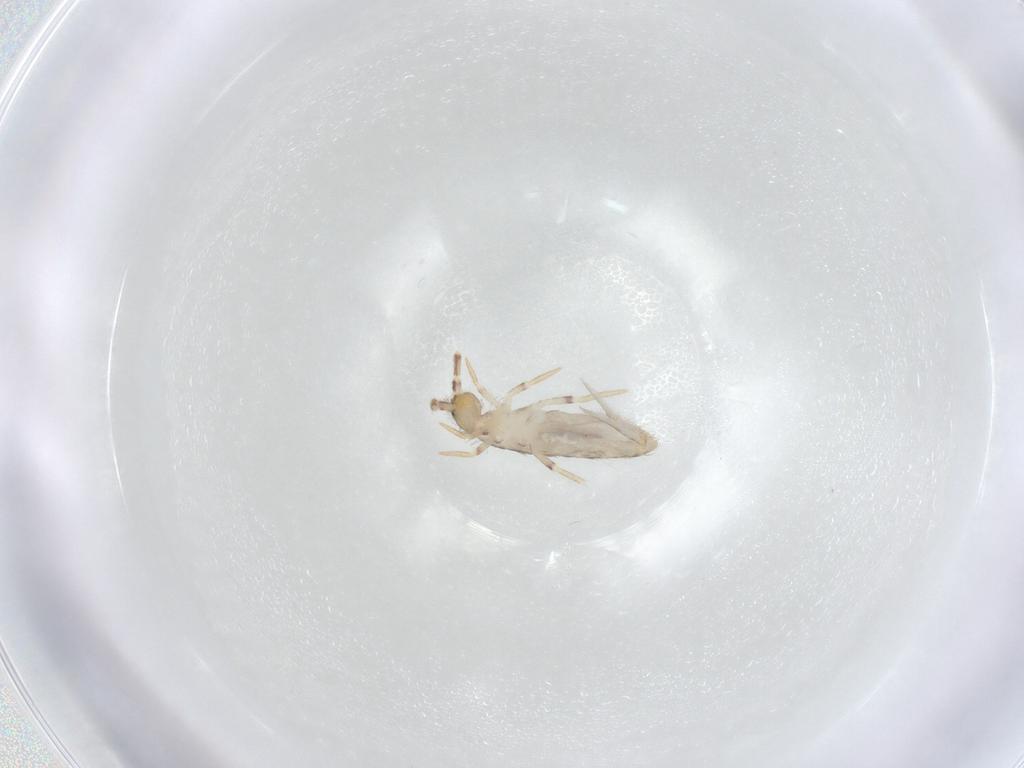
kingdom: Animalia
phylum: Arthropoda
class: Collembola
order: Entomobryomorpha
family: Entomobryidae
